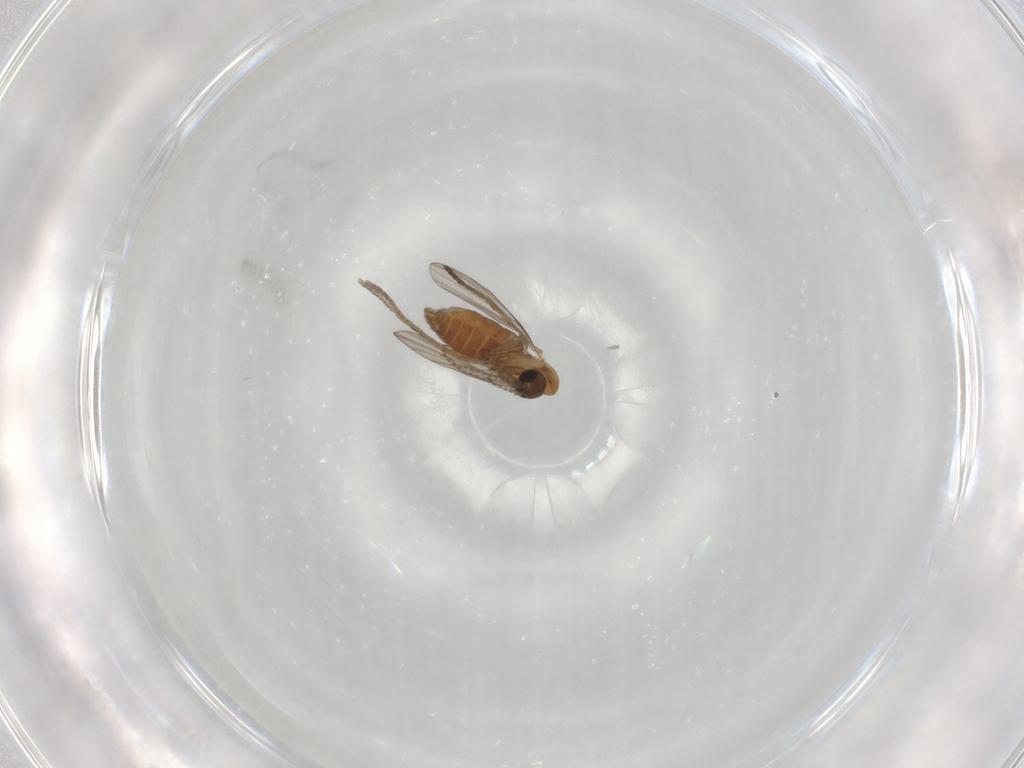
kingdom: Animalia
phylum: Arthropoda
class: Insecta
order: Diptera
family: Psychodidae
